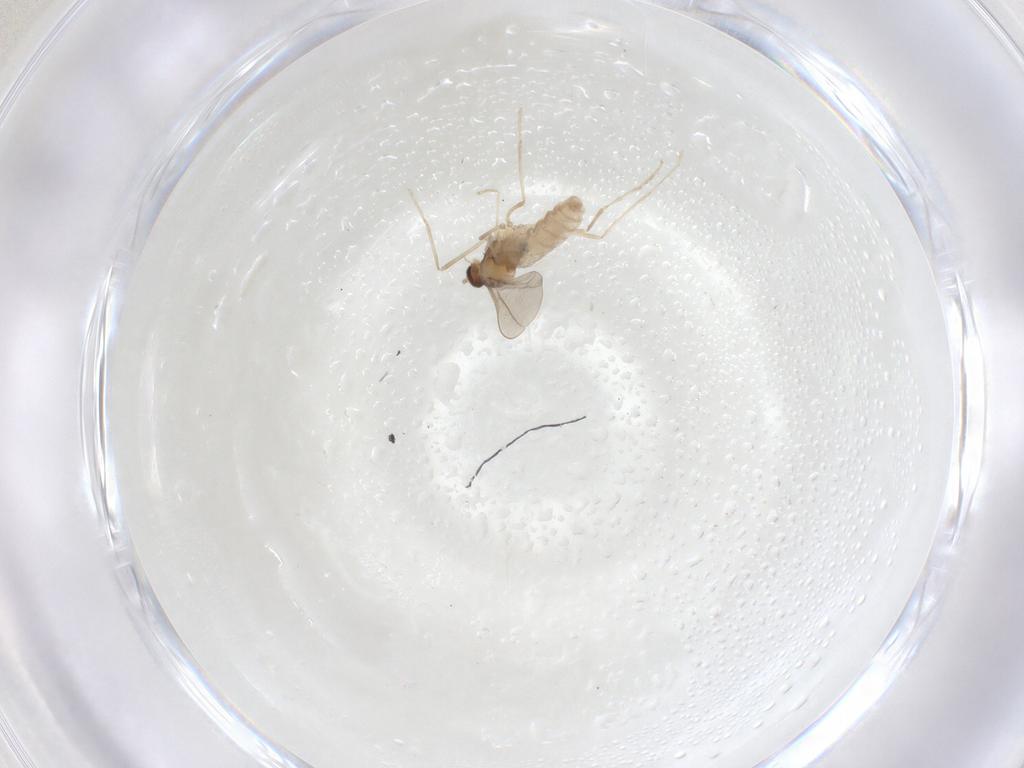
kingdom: Animalia
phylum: Arthropoda
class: Insecta
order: Diptera
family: Cecidomyiidae
